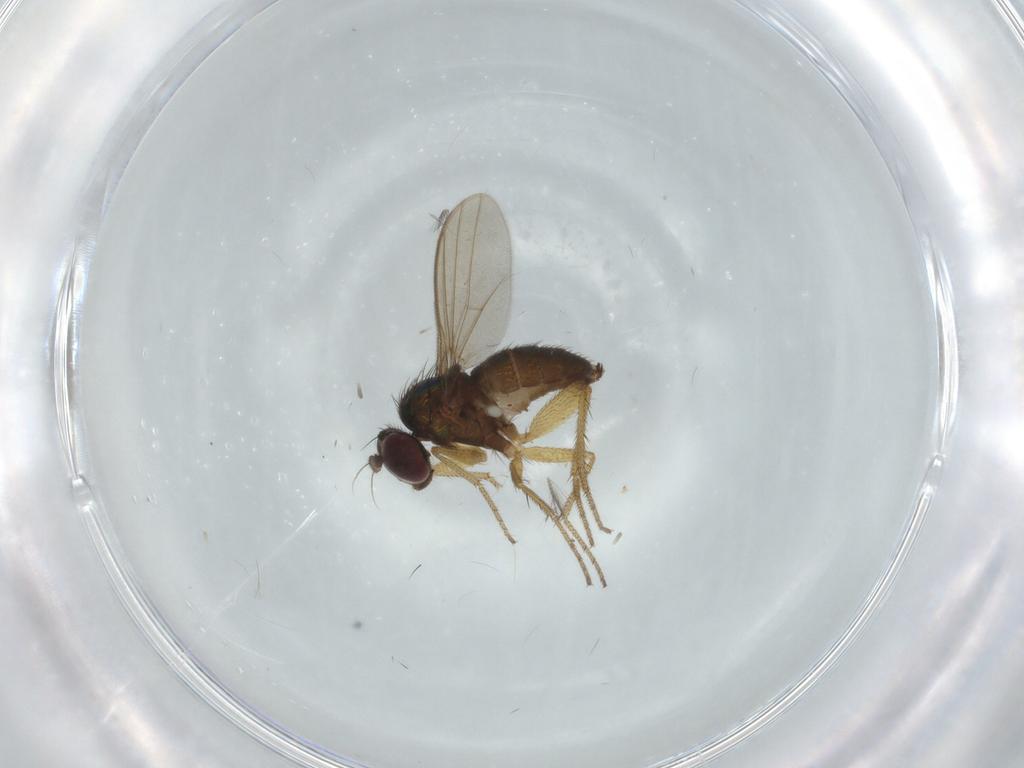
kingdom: Animalia
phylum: Arthropoda
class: Insecta
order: Diptera
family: Dolichopodidae
